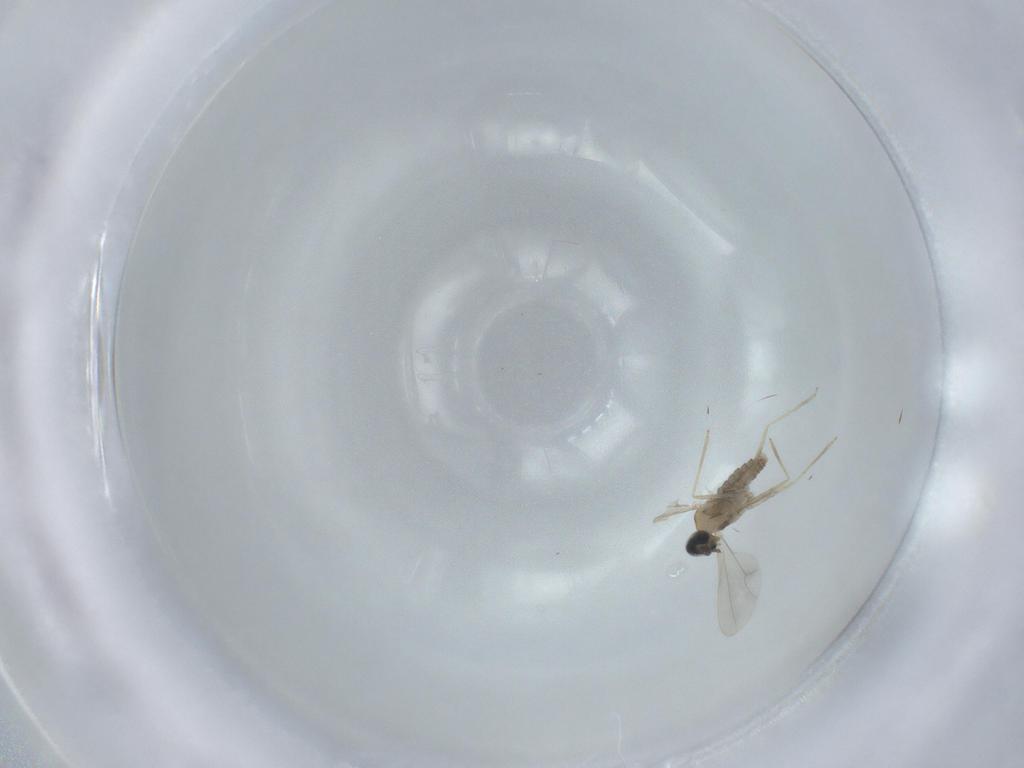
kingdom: Animalia
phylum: Arthropoda
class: Insecta
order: Diptera
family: Cecidomyiidae
